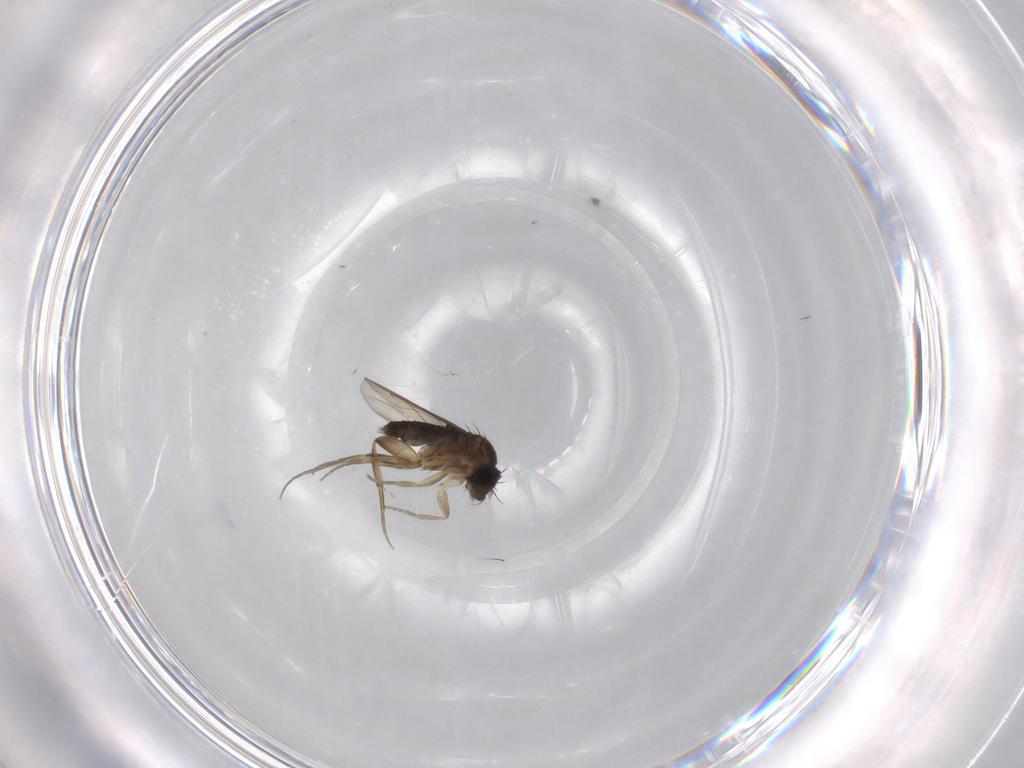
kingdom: Animalia
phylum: Arthropoda
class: Insecta
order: Diptera
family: Phoridae
